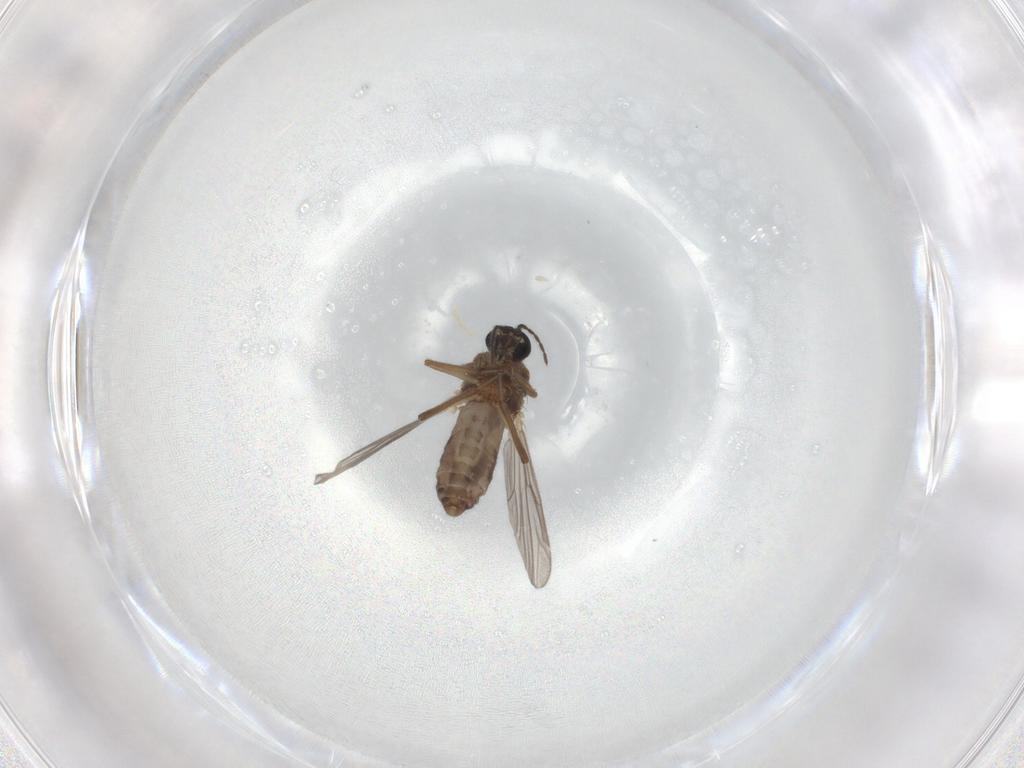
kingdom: Animalia
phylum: Arthropoda
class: Insecta
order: Diptera
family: Ceratopogonidae
